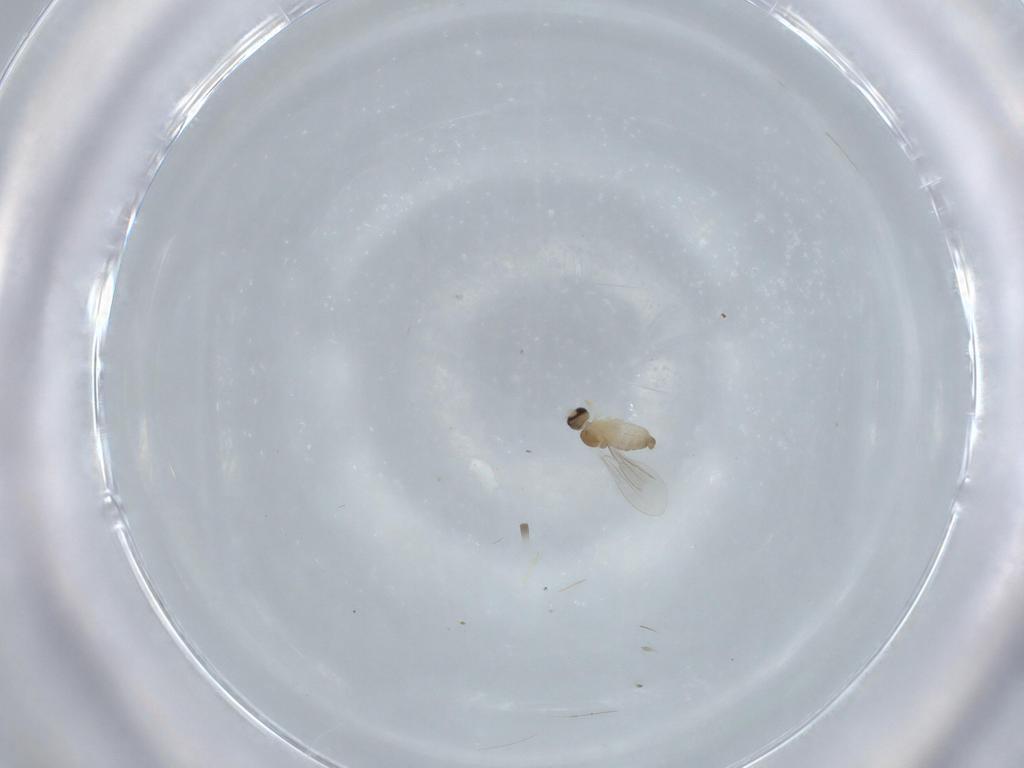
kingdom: Animalia
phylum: Arthropoda
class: Insecta
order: Diptera
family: Cecidomyiidae
